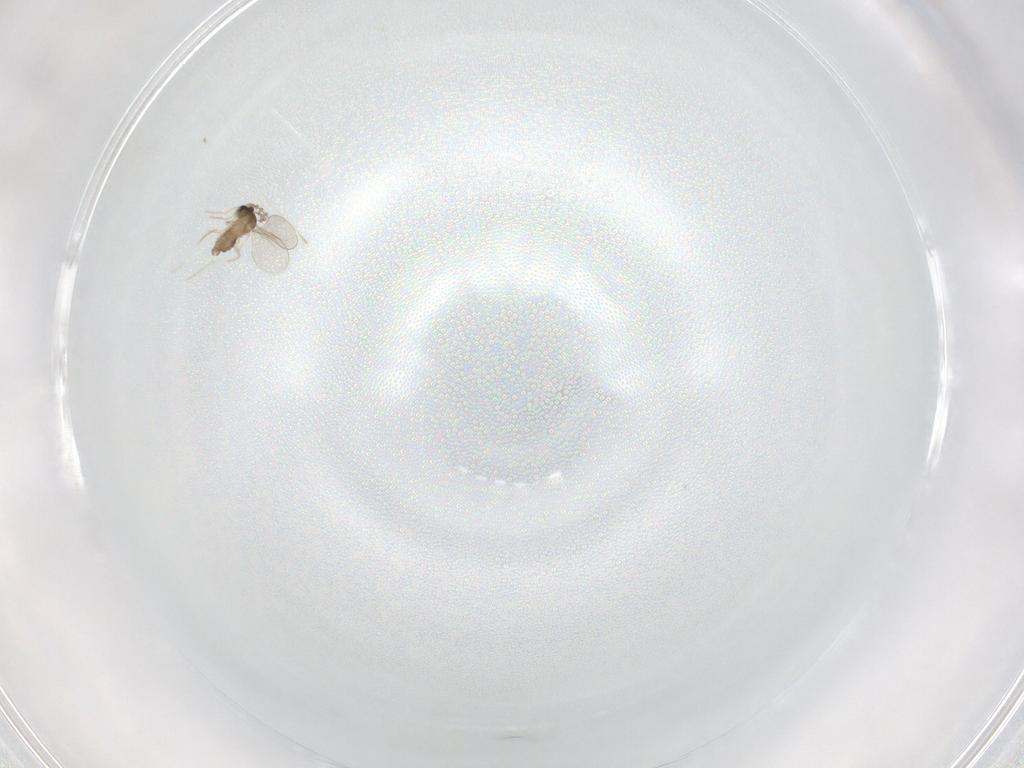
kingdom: Animalia
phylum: Arthropoda
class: Insecta
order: Diptera
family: Cecidomyiidae
